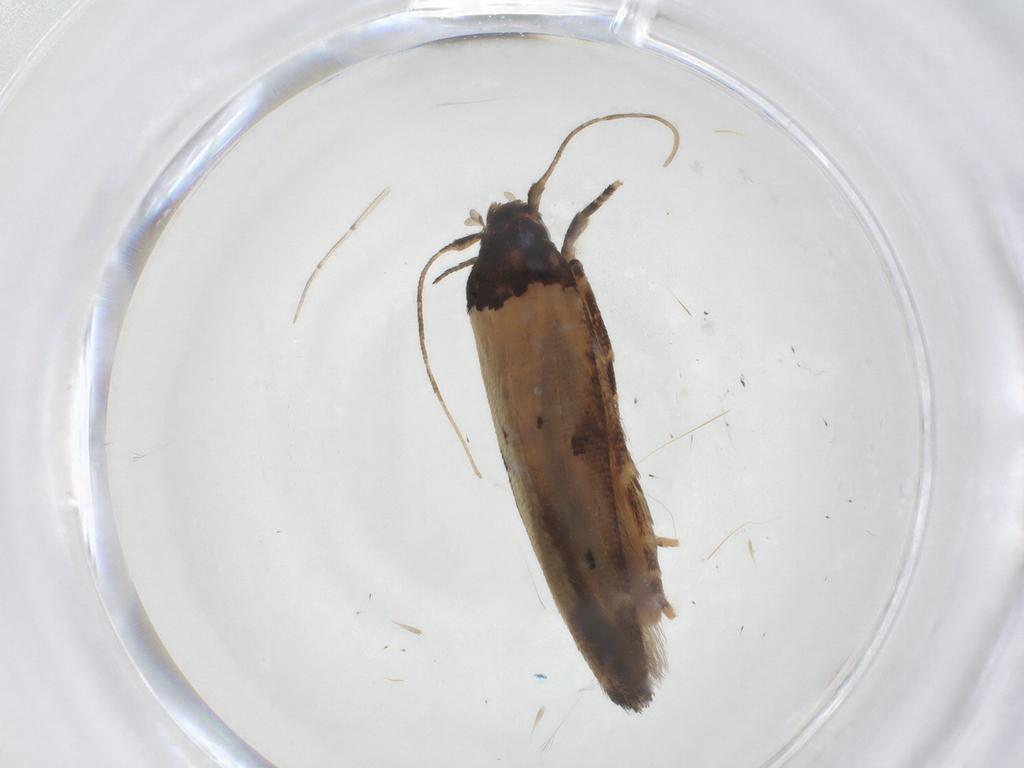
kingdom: Animalia
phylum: Arthropoda
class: Insecta
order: Lepidoptera
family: Cosmopterigidae
